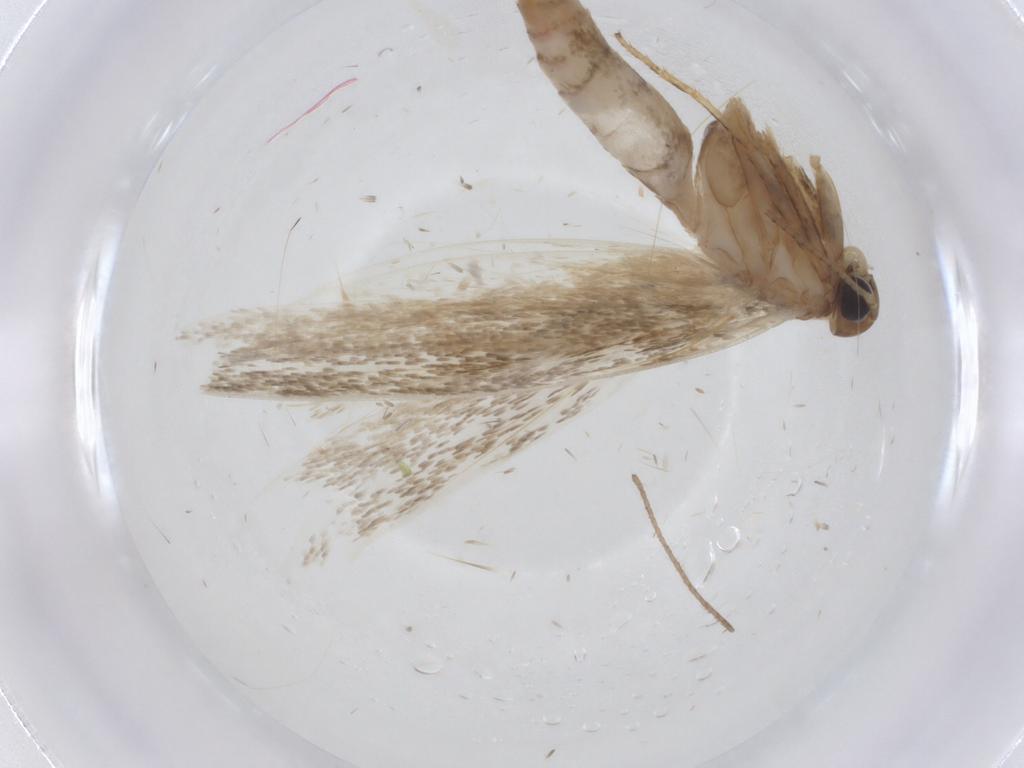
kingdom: Animalia
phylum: Arthropoda
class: Insecta
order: Lepidoptera
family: Gelechiidae
